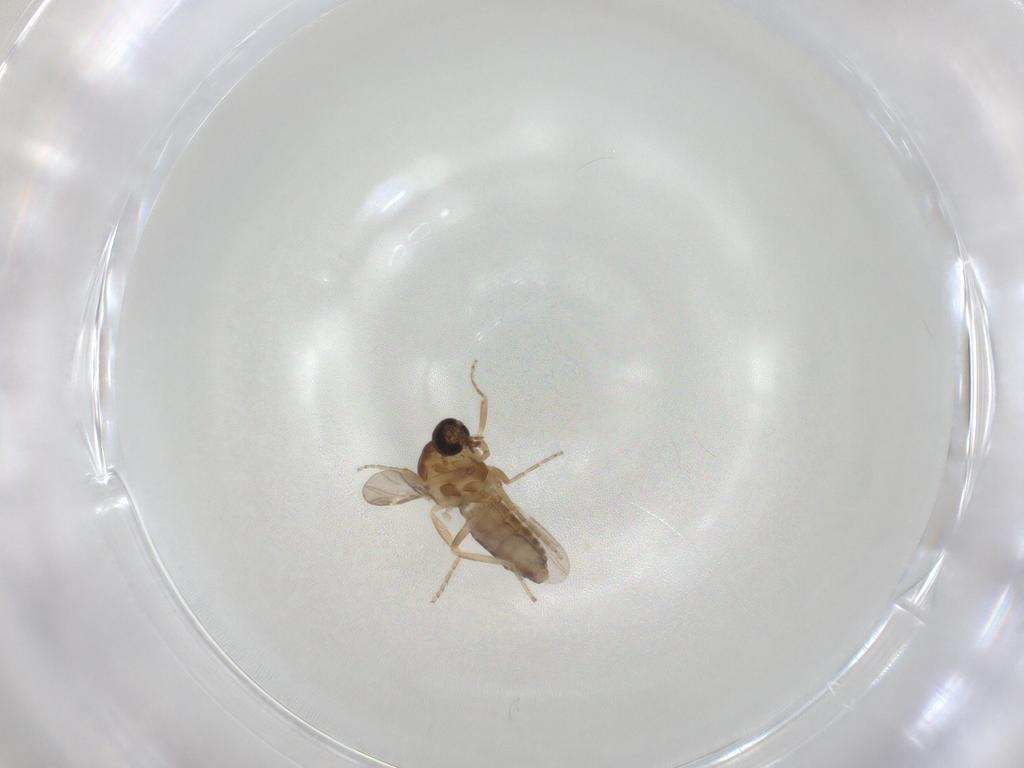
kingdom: Animalia
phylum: Arthropoda
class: Insecta
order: Diptera
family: Ceratopogonidae
